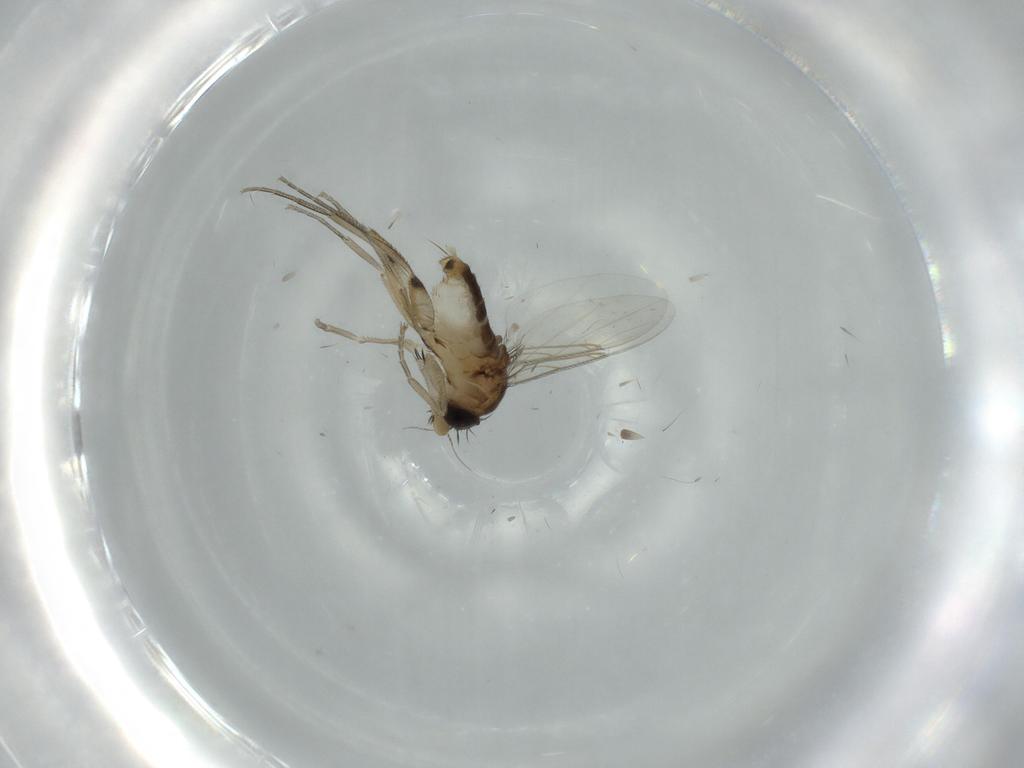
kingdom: Animalia
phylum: Arthropoda
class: Insecta
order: Diptera
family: Phoridae
